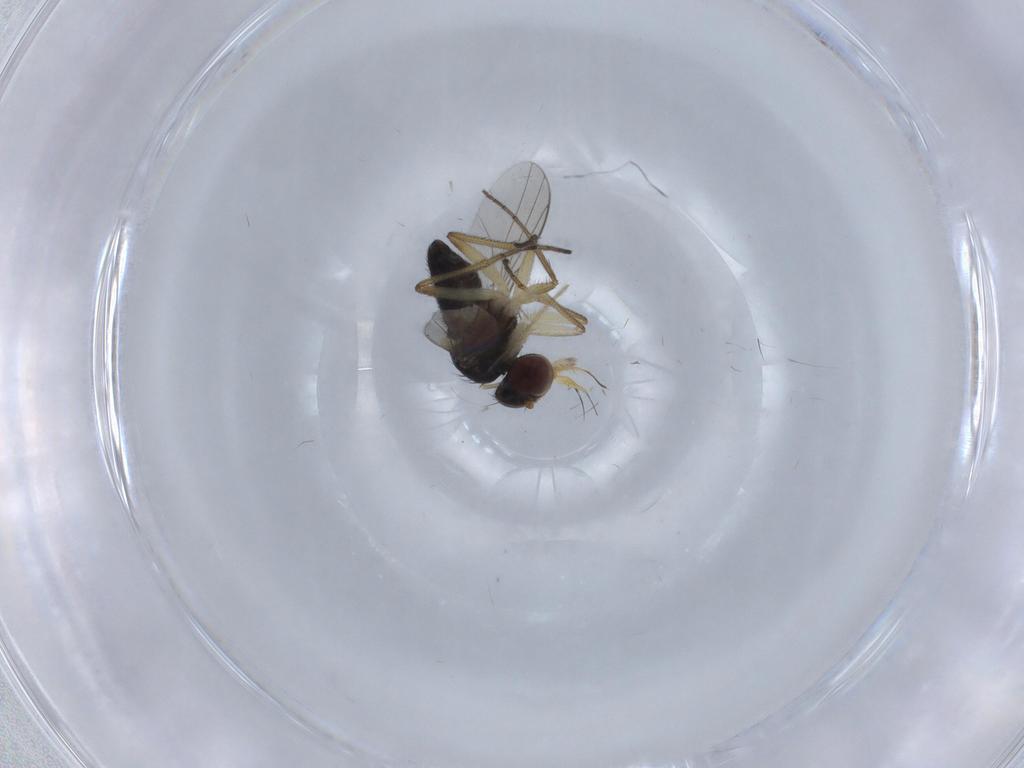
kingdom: Animalia
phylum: Arthropoda
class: Insecta
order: Diptera
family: Dolichopodidae
